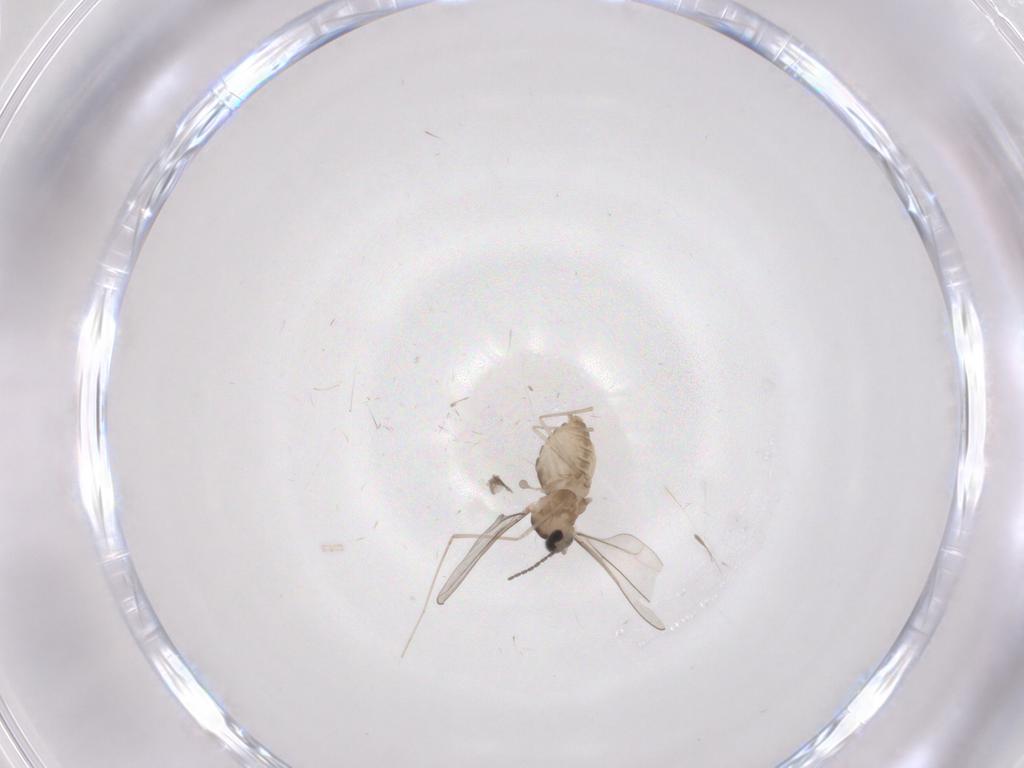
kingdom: Animalia
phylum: Arthropoda
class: Insecta
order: Diptera
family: Cecidomyiidae
